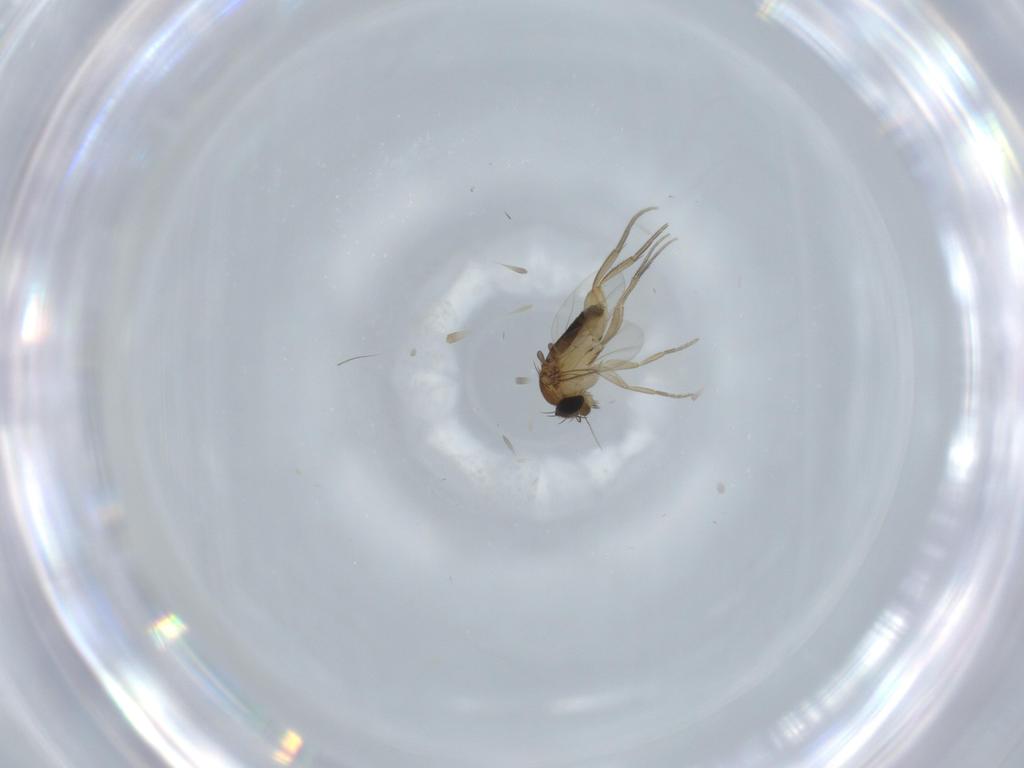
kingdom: Animalia
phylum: Arthropoda
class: Insecta
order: Diptera
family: Phoridae
